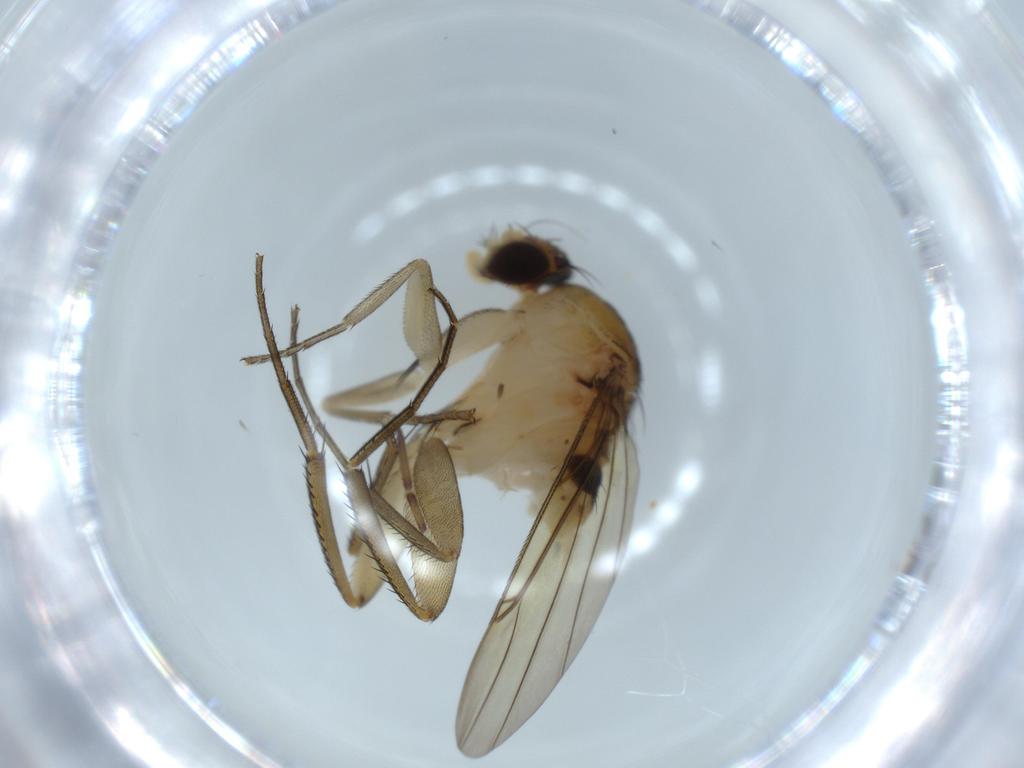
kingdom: Animalia
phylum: Arthropoda
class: Insecta
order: Diptera
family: Phoridae
